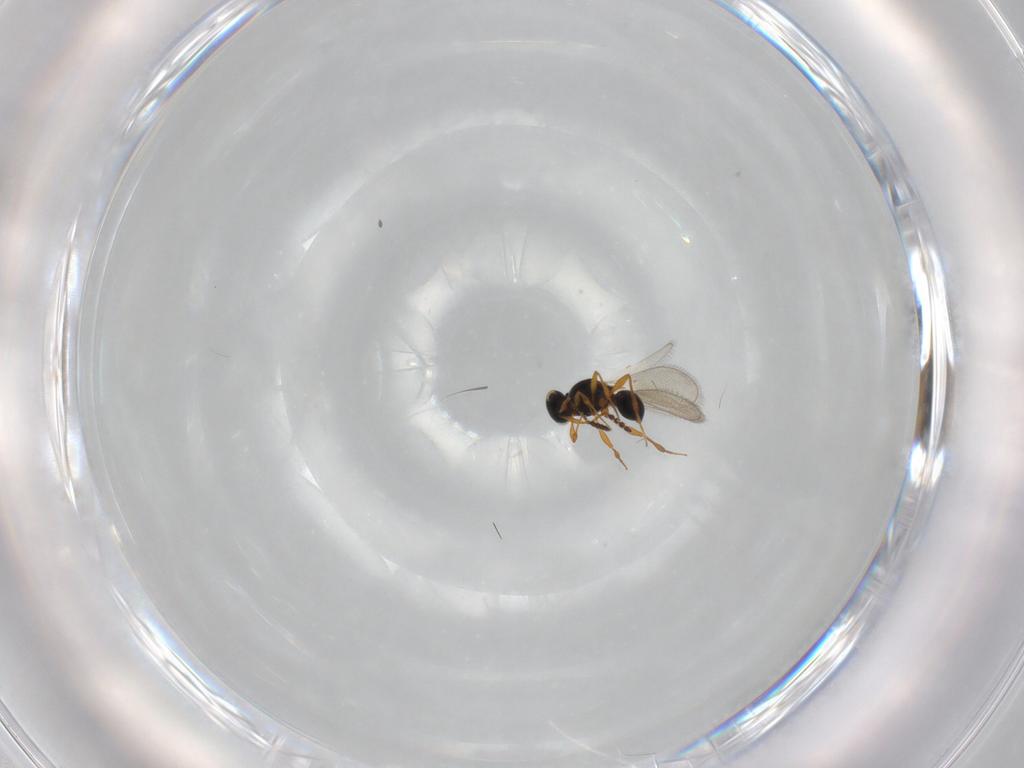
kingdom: Animalia
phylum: Arthropoda
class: Insecta
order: Hymenoptera
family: Platygastridae
